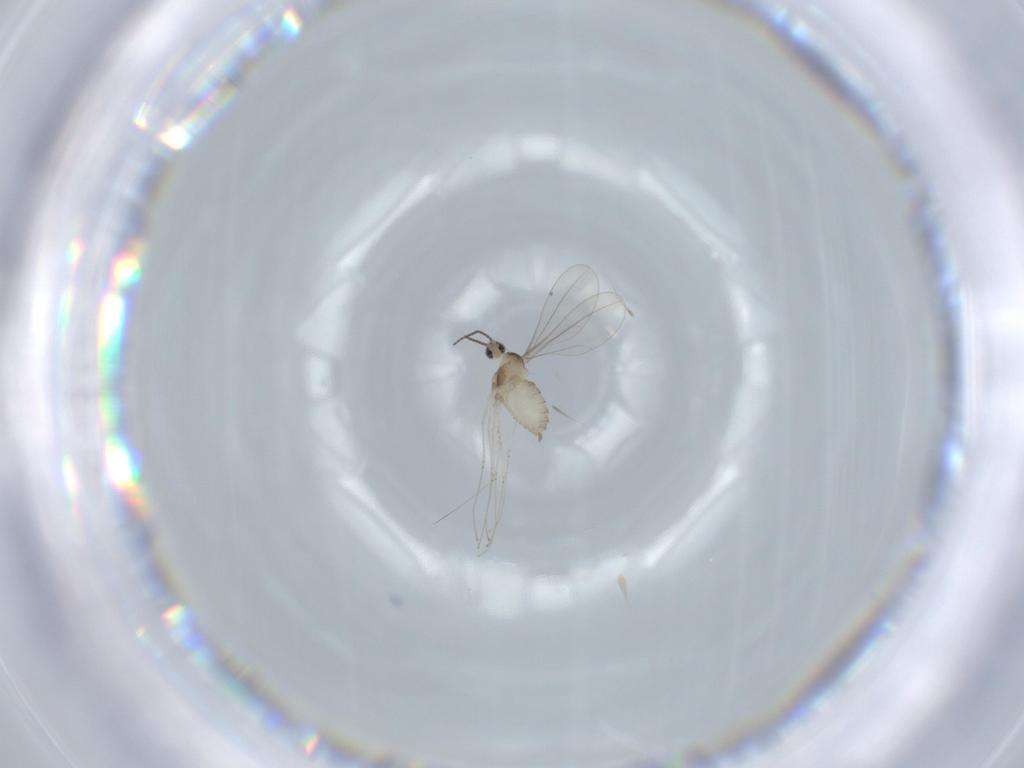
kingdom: Animalia
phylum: Arthropoda
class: Insecta
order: Diptera
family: Cecidomyiidae
